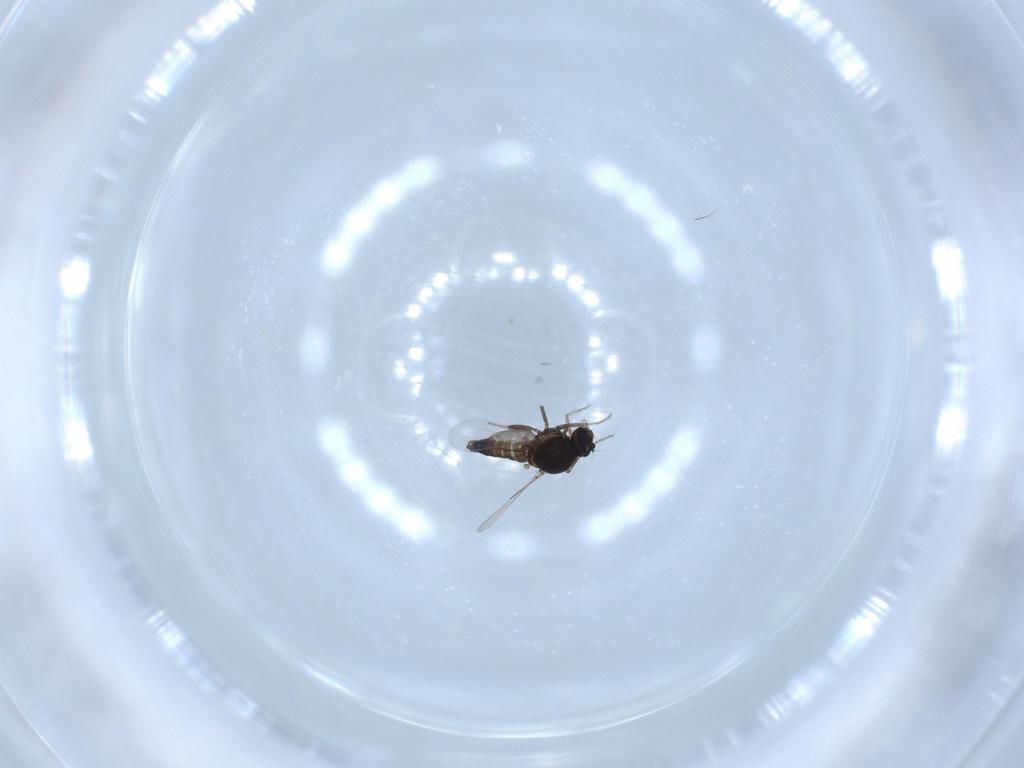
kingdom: Animalia
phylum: Arthropoda
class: Insecta
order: Diptera
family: Ceratopogonidae
